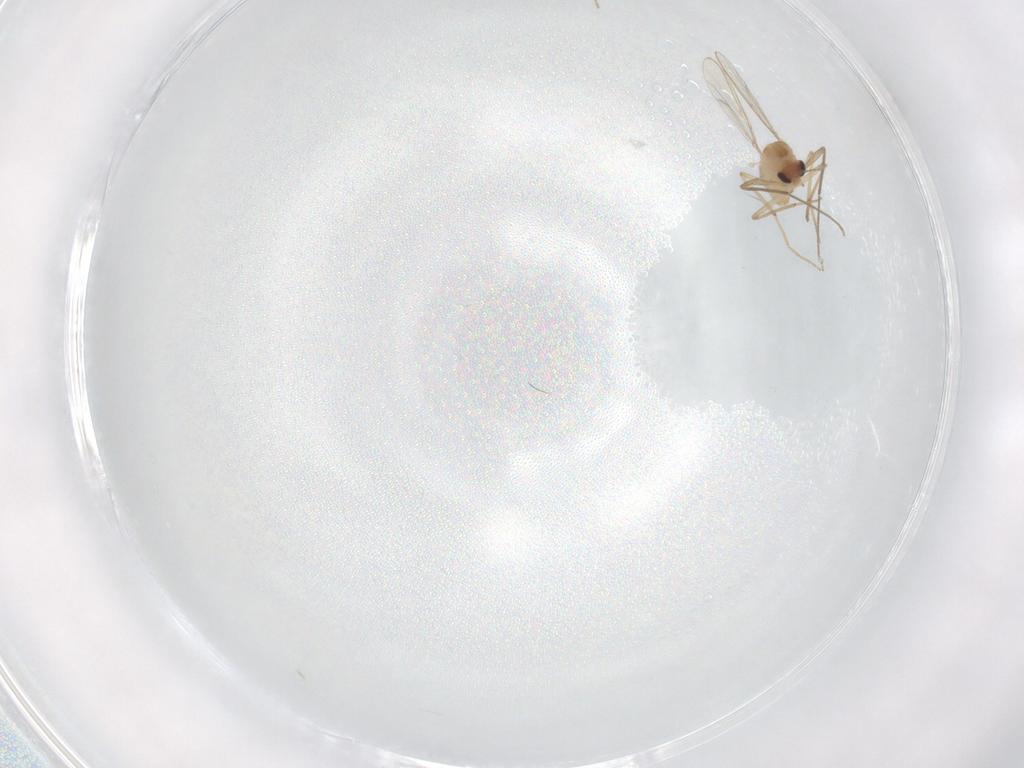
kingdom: Animalia
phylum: Arthropoda
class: Insecta
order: Diptera
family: Chironomidae
